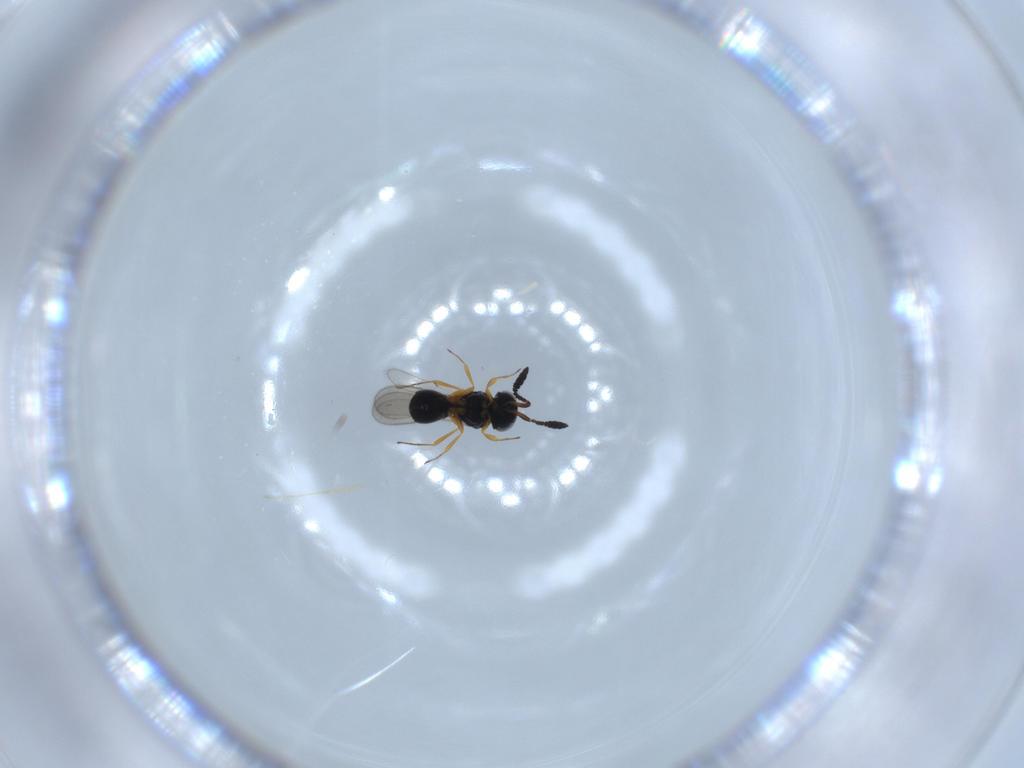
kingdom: Animalia
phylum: Arthropoda
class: Insecta
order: Hymenoptera
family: Scelionidae
